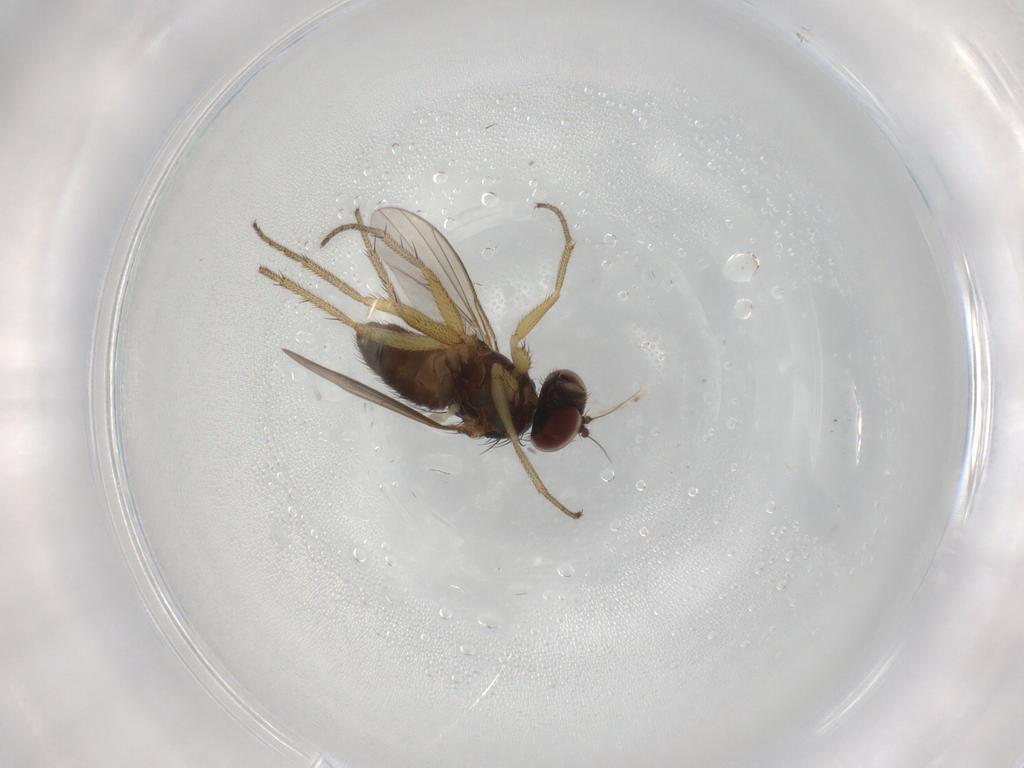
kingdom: Animalia
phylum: Arthropoda
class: Insecta
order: Diptera
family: Dolichopodidae
